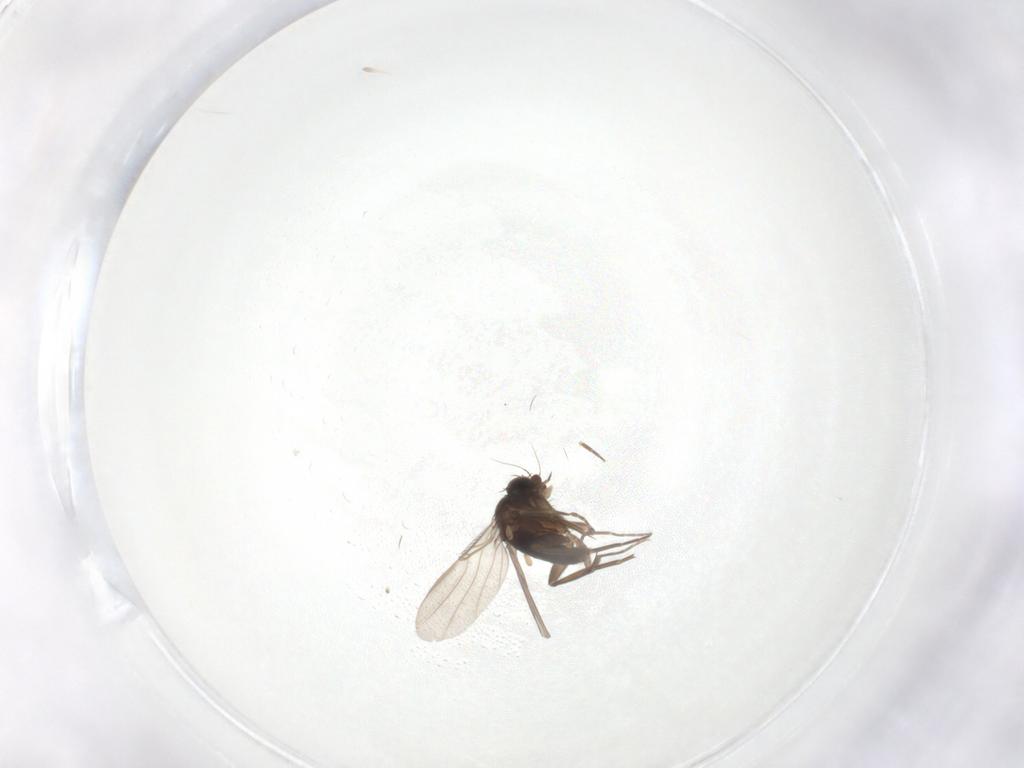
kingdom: Animalia
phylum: Arthropoda
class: Insecta
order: Diptera
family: Phoridae
